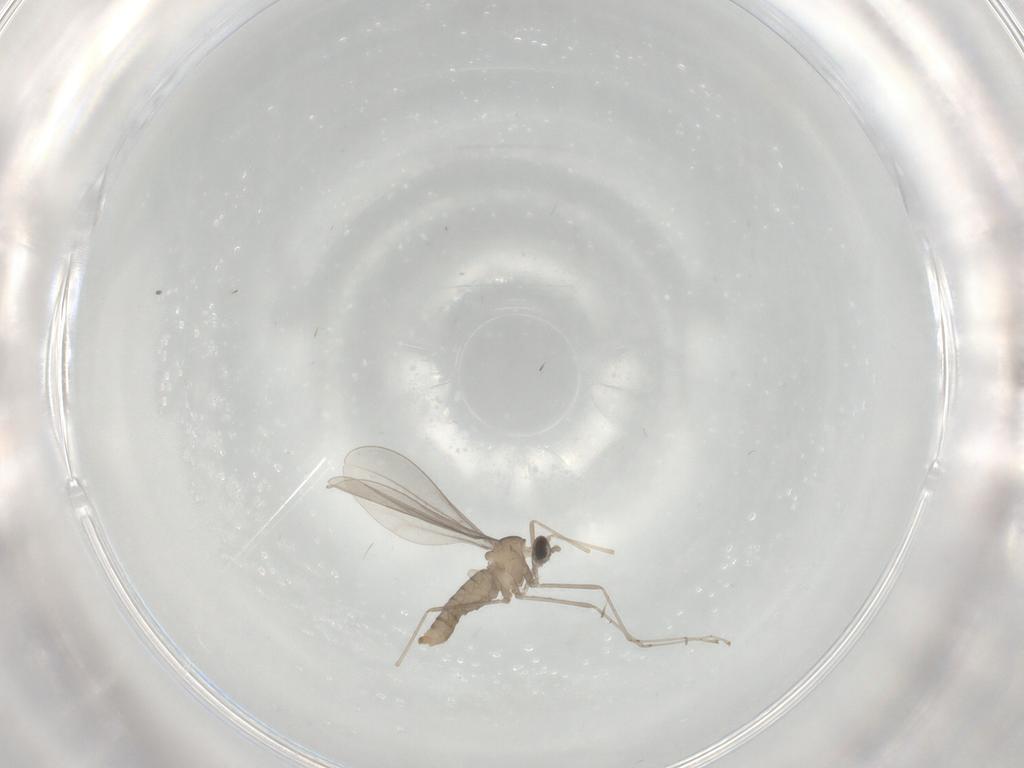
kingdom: Animalia
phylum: Arthropoda
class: Insecta
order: Diptera
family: Cecidomyiidae
